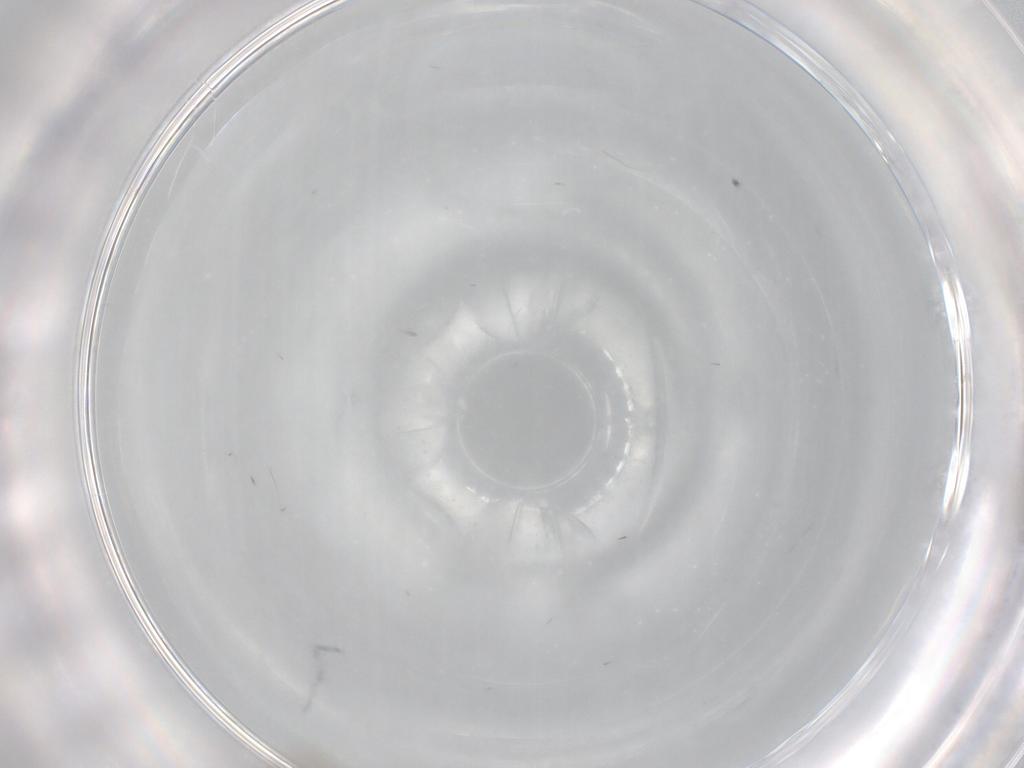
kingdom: Animalia
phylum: Arthropoda
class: Insecta
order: Hymenoptera
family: Mymaridae
